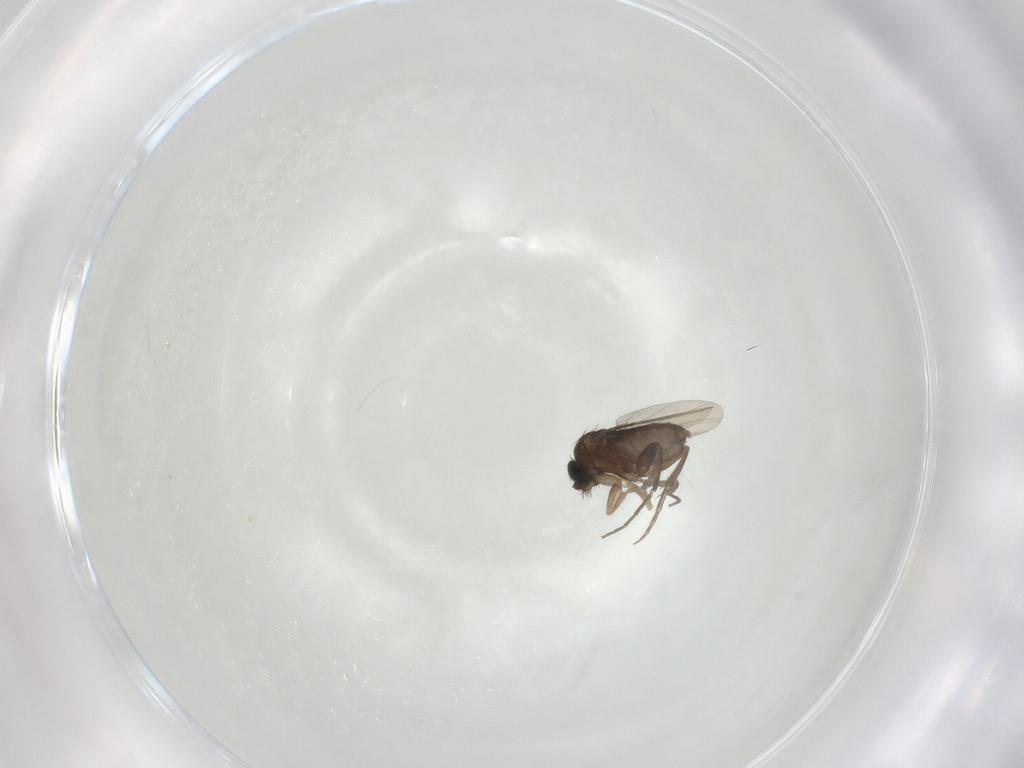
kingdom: Animalia
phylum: Arthropoda
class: Insecta
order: Diptera
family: Phoridae
